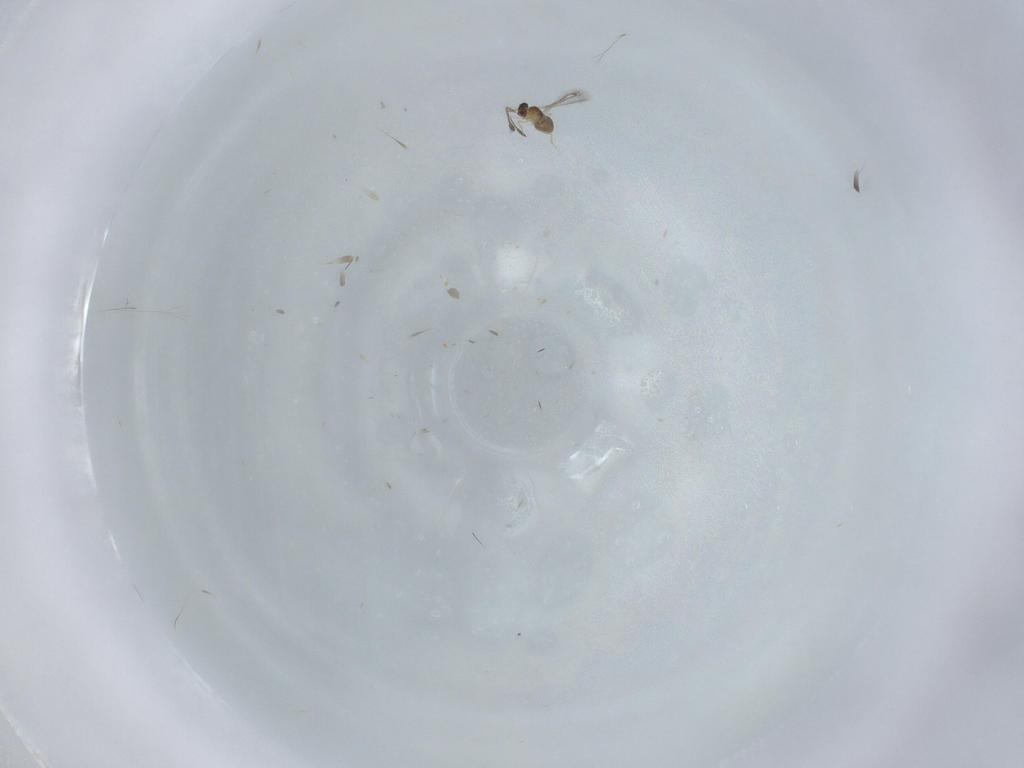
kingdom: Animalia
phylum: Arthropoda
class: Insecta
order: Hymenoptera
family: Mymaridae
